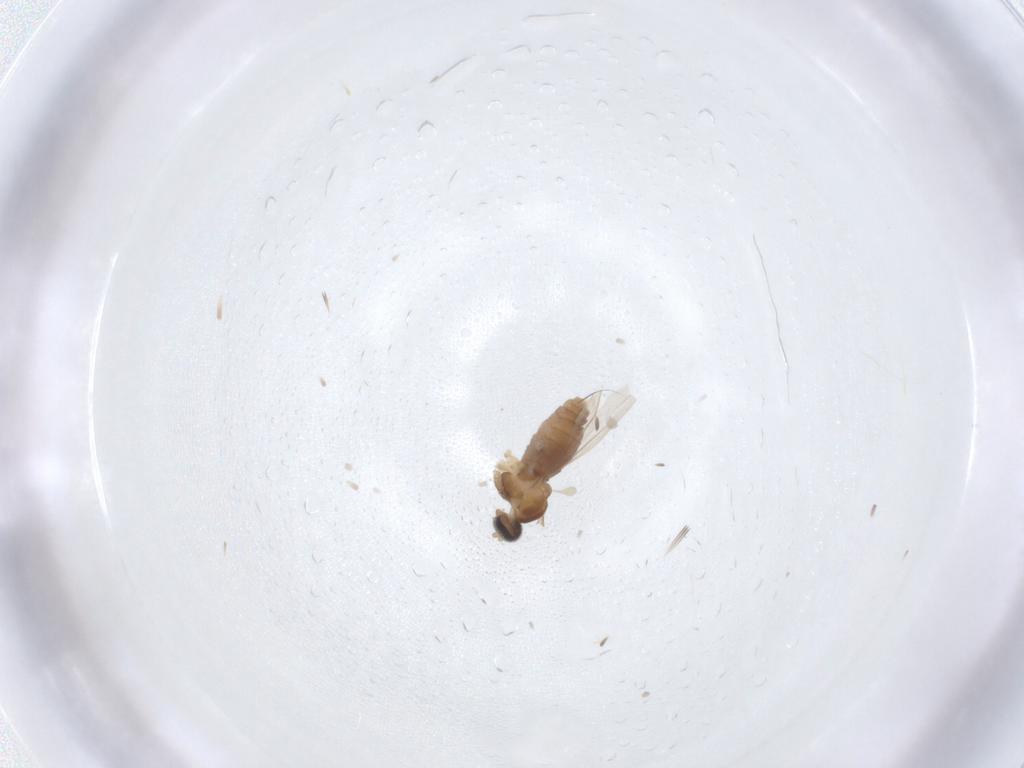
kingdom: Animalia
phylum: Arthropoda
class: Insecta
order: Diptera
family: Cecidomyiidae
